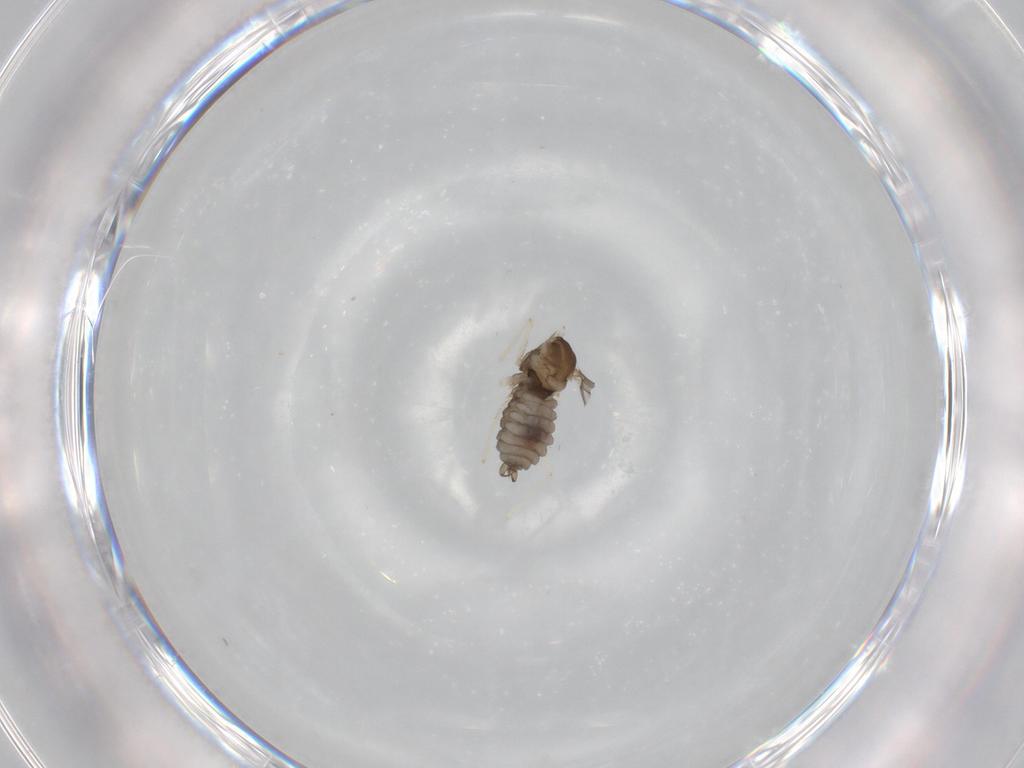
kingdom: Animalia
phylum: Arthropoda
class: Insecta
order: Diptera
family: Cecidomyiidae
